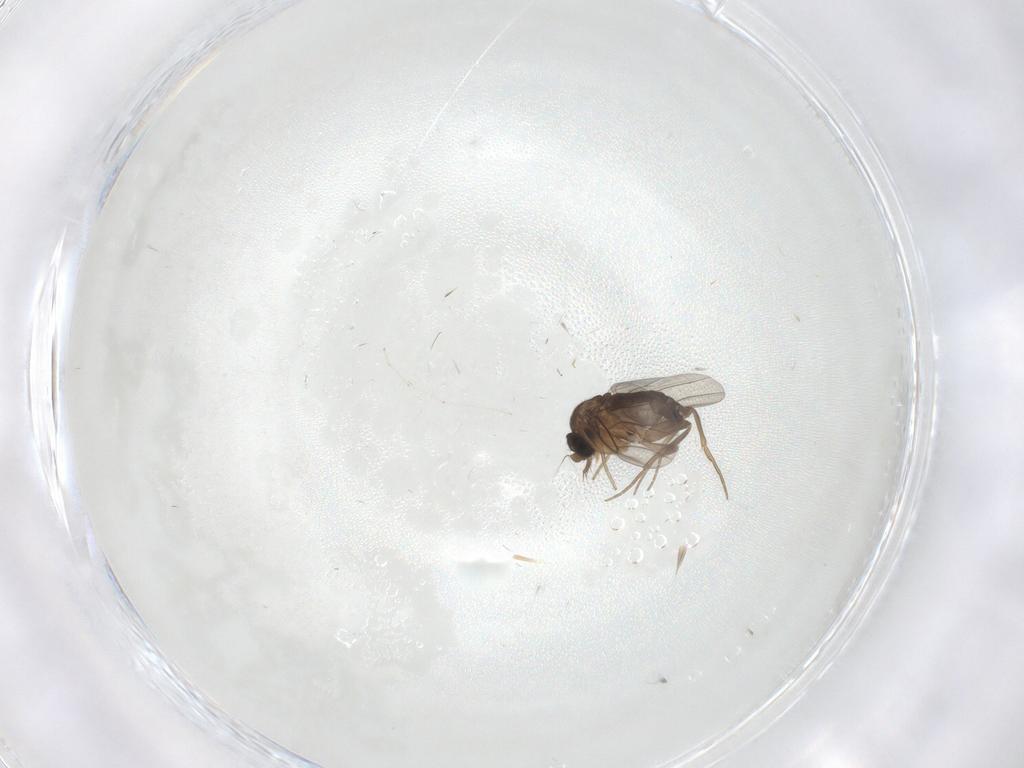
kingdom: Animalia
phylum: Arthropoda
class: Insecta
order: Diptera
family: Phoridae
